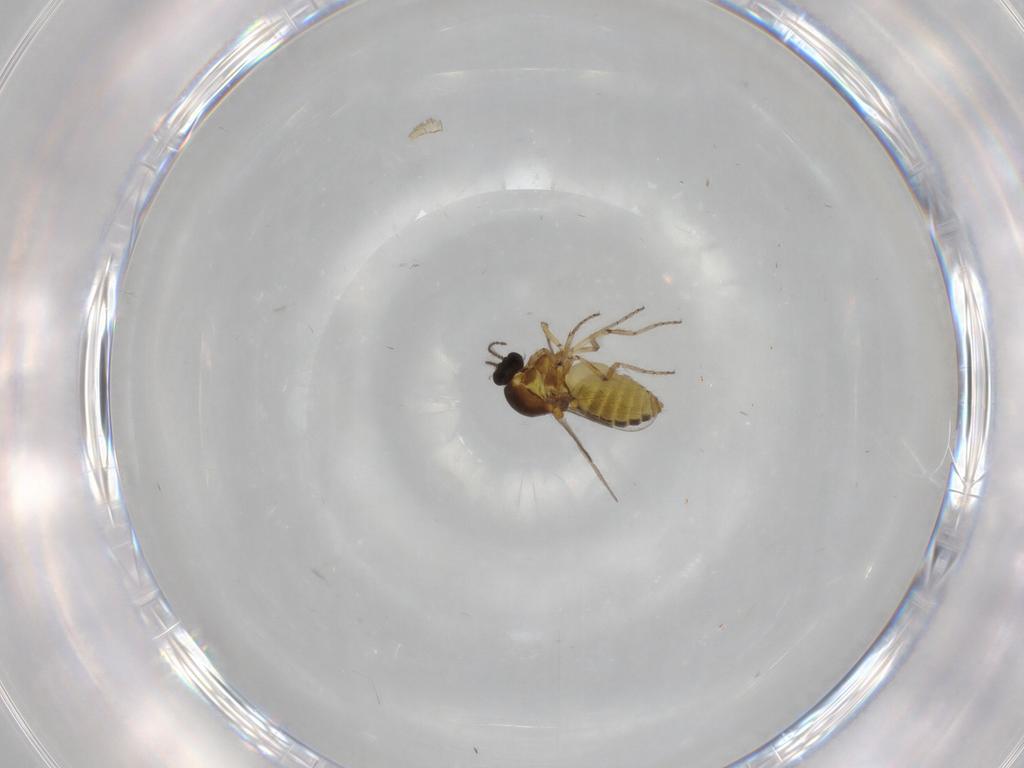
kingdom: Animalia
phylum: Arthropoda
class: Insecta
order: Diptera
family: Ceratopogonidae
